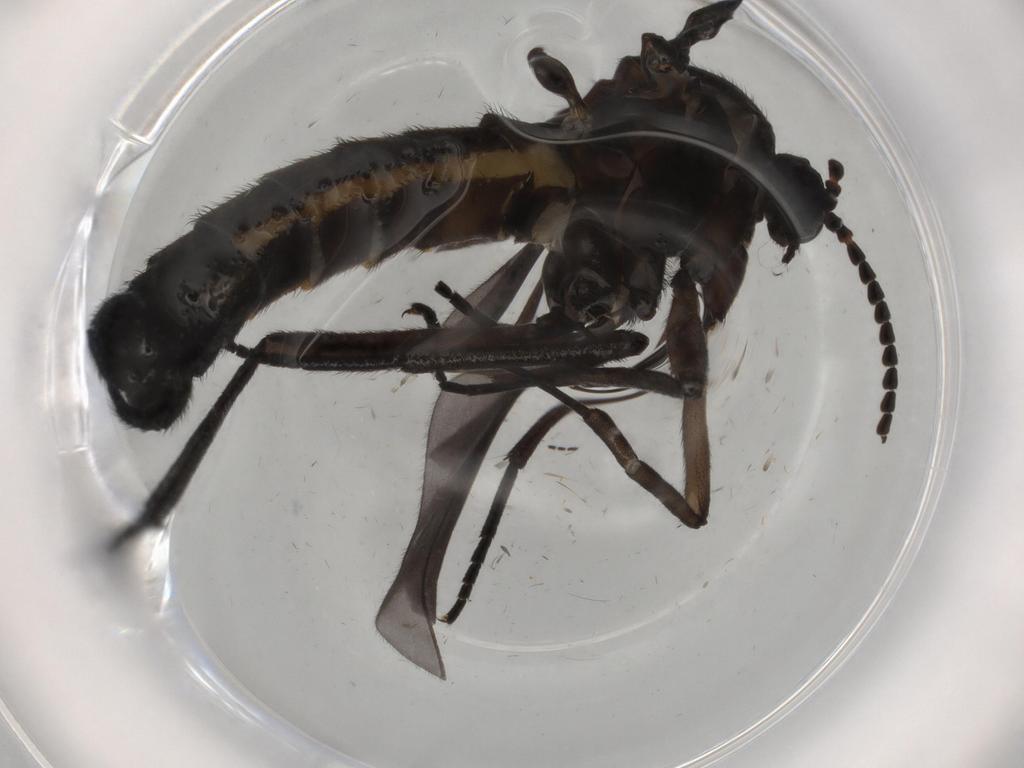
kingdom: Animalia
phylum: Arthropoda
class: Insecta
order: Diptera
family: Sciaridae
